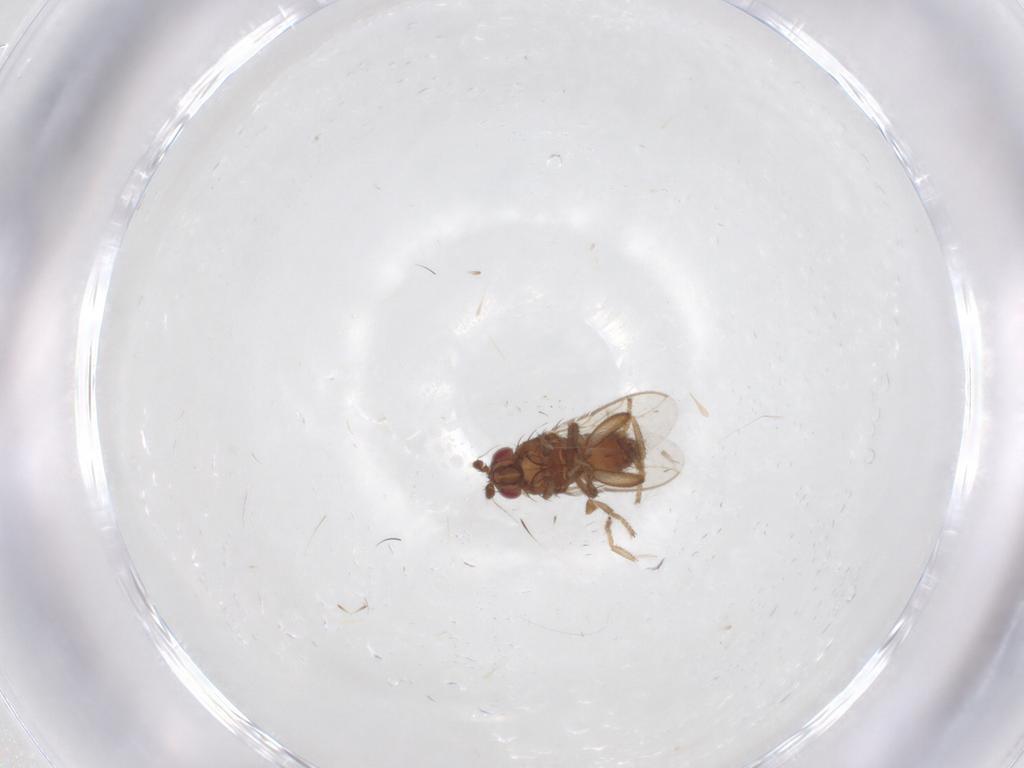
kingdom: Animalia
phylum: Arthropoda
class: Insecta
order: Diptera
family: Sphaeroceridae
